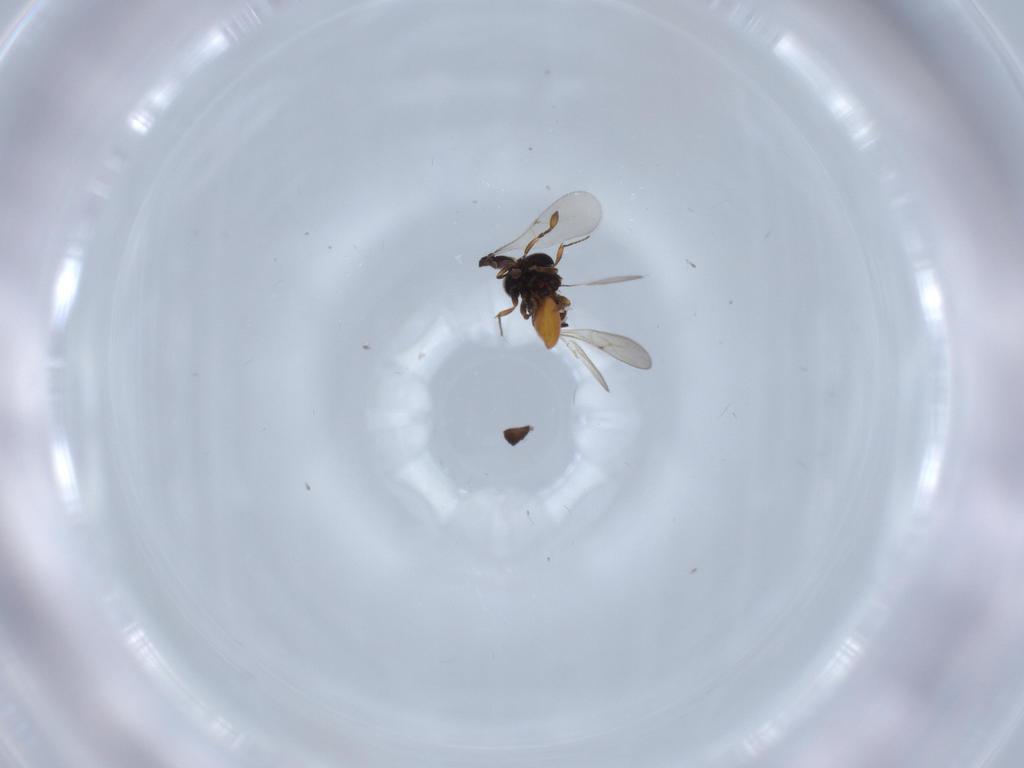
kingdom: Animalia
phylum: Arthropoda
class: Insecta
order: Hymenoptera
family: Scelionidae
